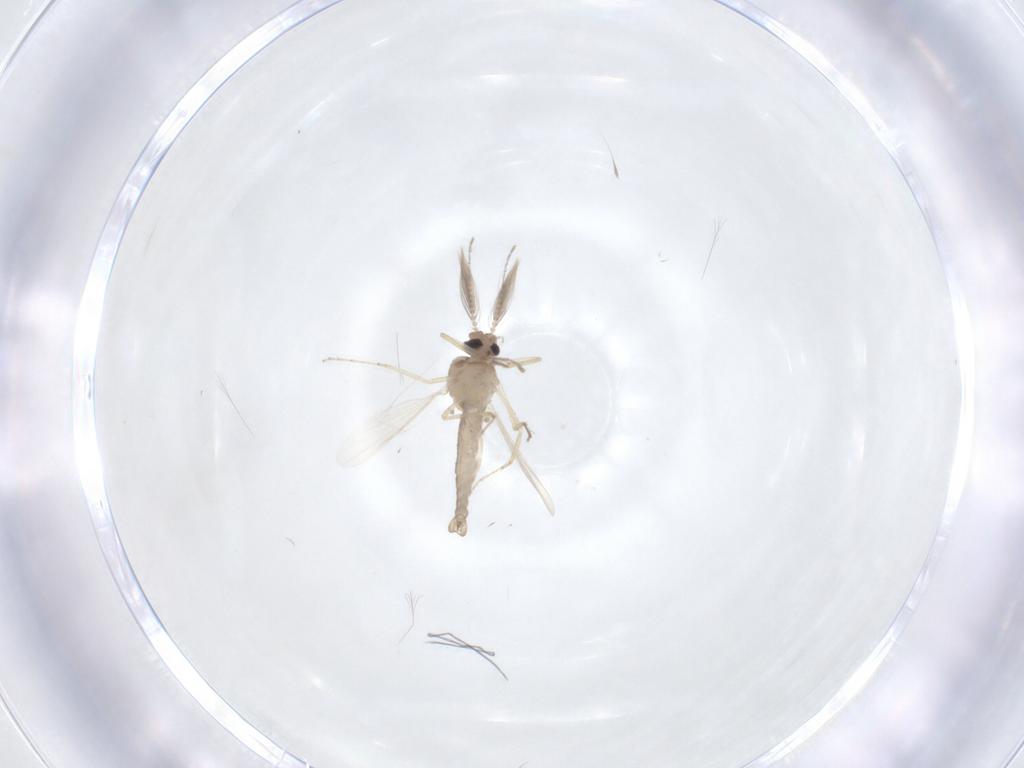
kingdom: Animalia
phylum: Arthropoda
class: Insecta
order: Diptera
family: Ceratopogonidae
